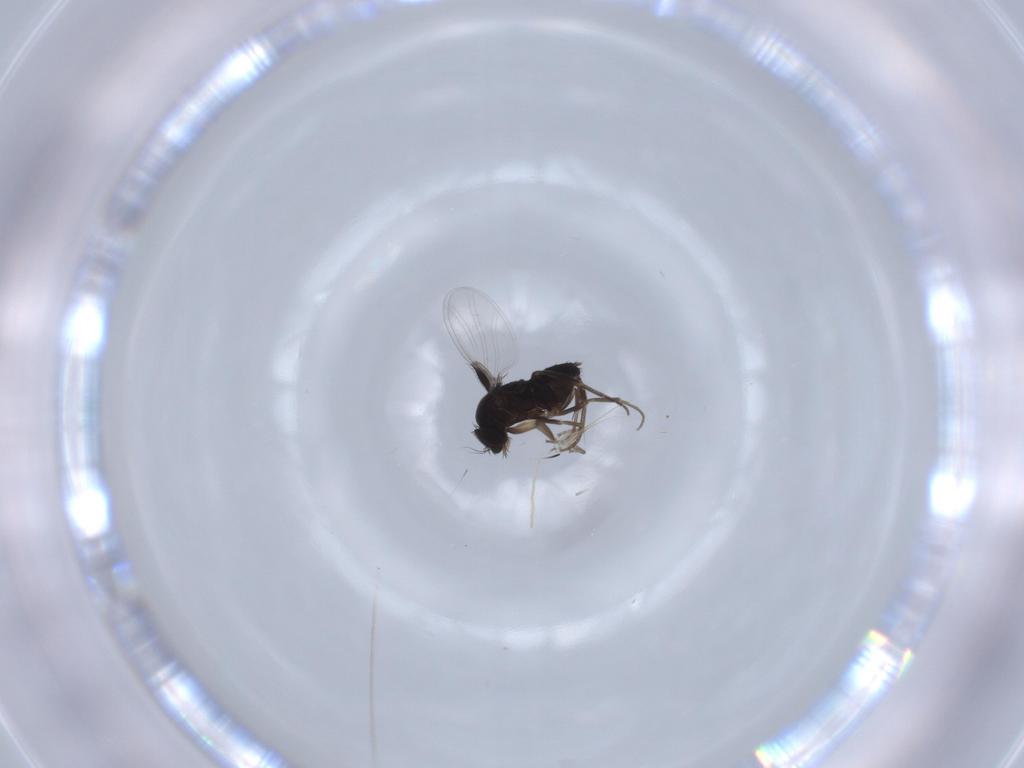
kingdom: Animalia
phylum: Arthropoda
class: Insecta
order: Diptera
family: Phoridae
